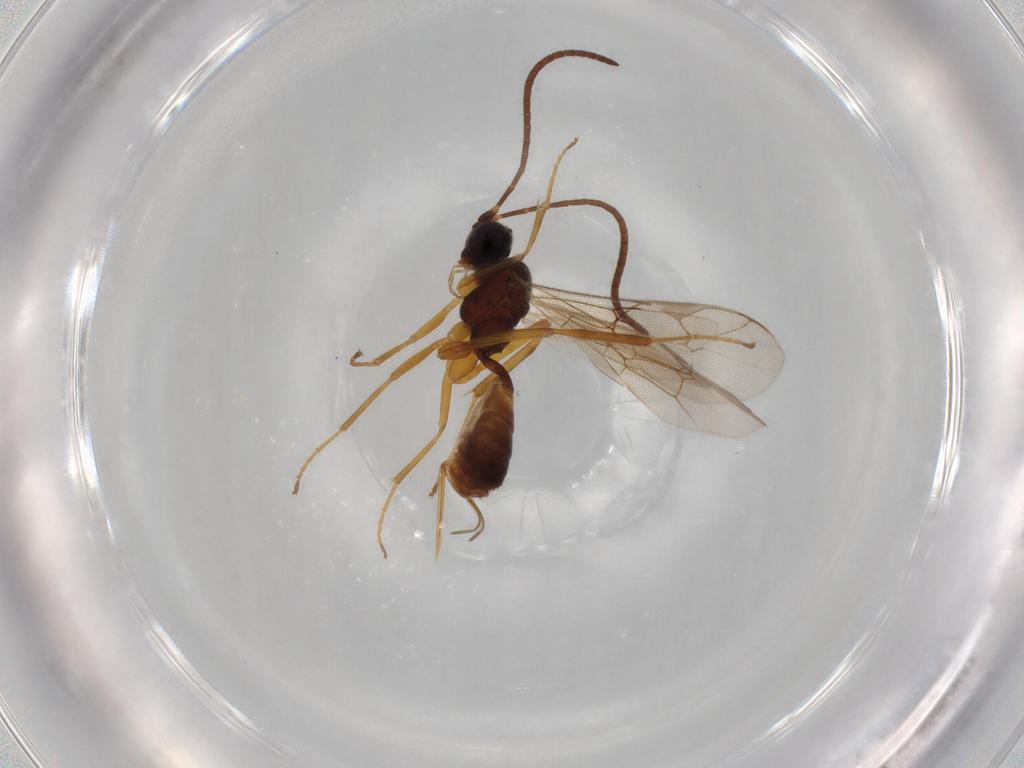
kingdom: Animalia
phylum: Arthropoda
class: Insecta
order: Hymenoptera
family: Ichneumonidae
